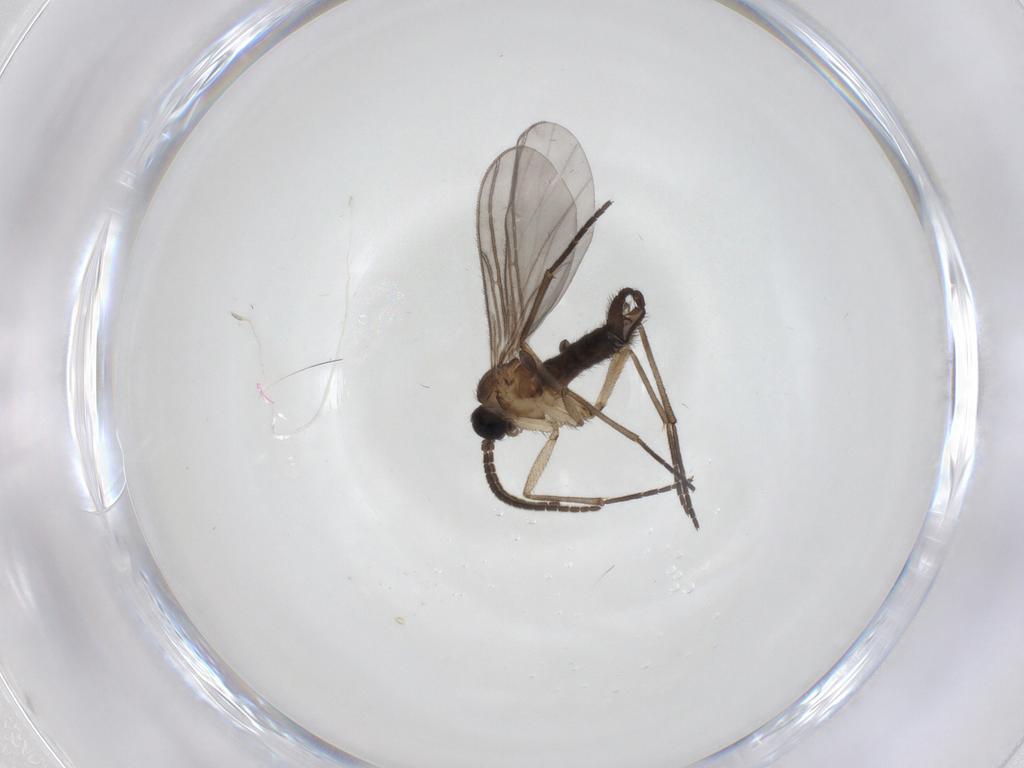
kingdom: Animalia
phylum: Arthropoda
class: Insecta
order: Diptera
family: Sciaridae
